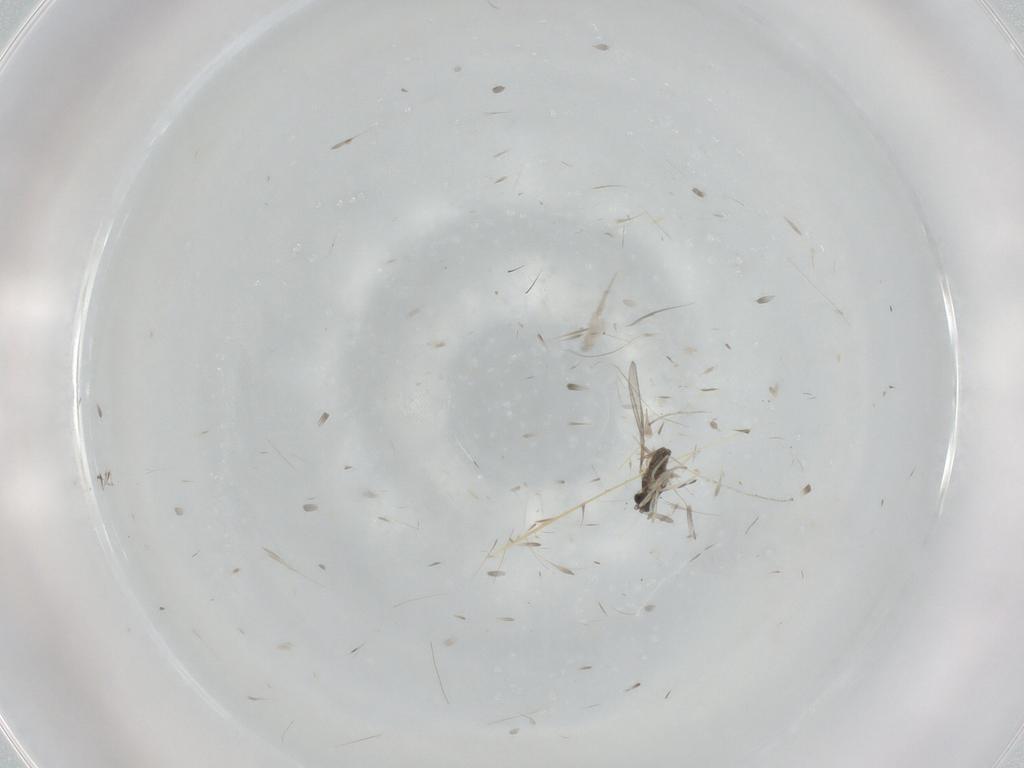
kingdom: Animalia
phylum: Arthropoda
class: Insecta
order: Diptera
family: Cecidomyiidae
